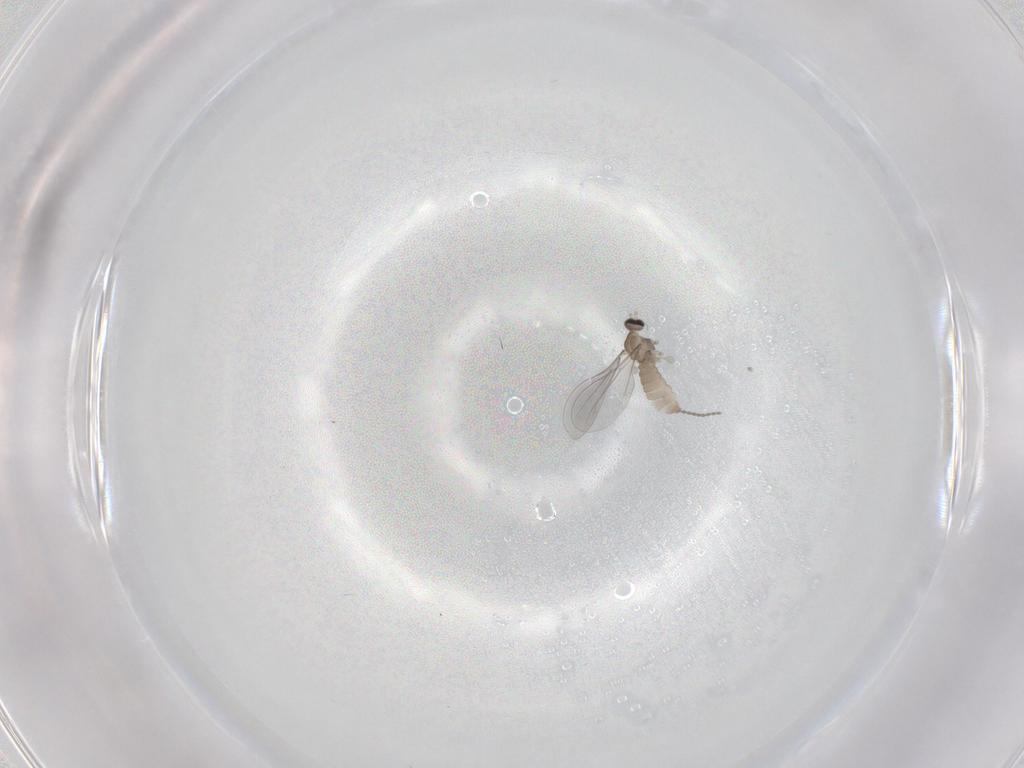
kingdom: Animalia
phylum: Arthropoda
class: Insecta
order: Diptera
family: Cecidomyiidae
